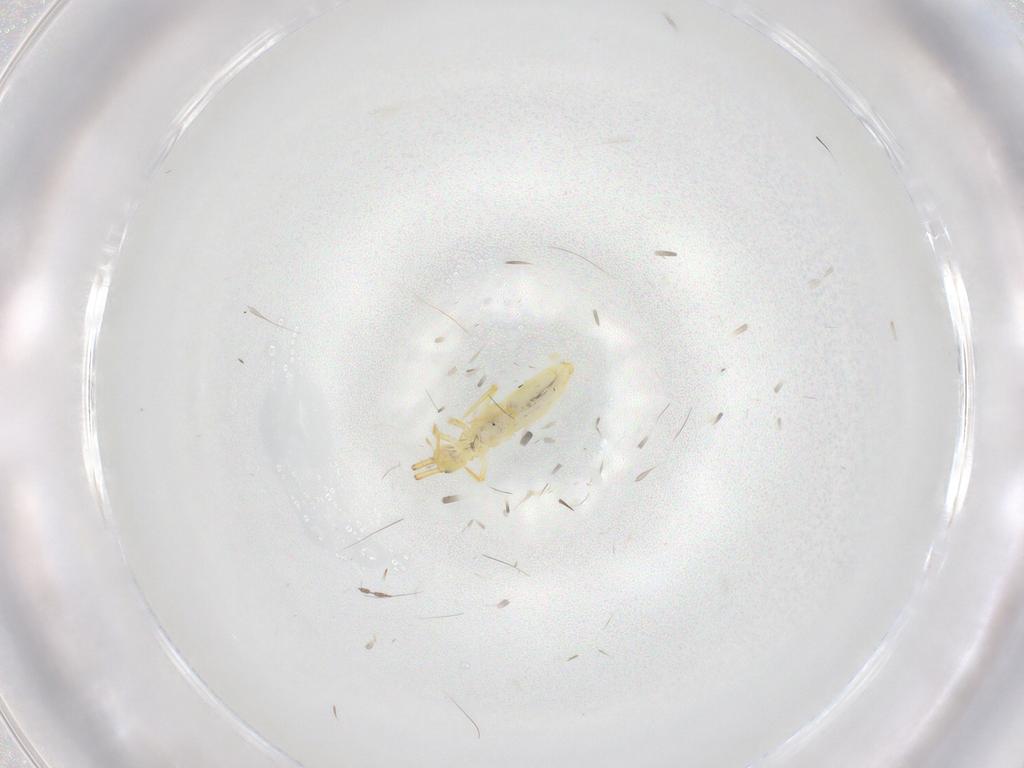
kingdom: Animalia
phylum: Arthropoda
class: Collembola
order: Entomobryomorpha
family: Paronellidae
